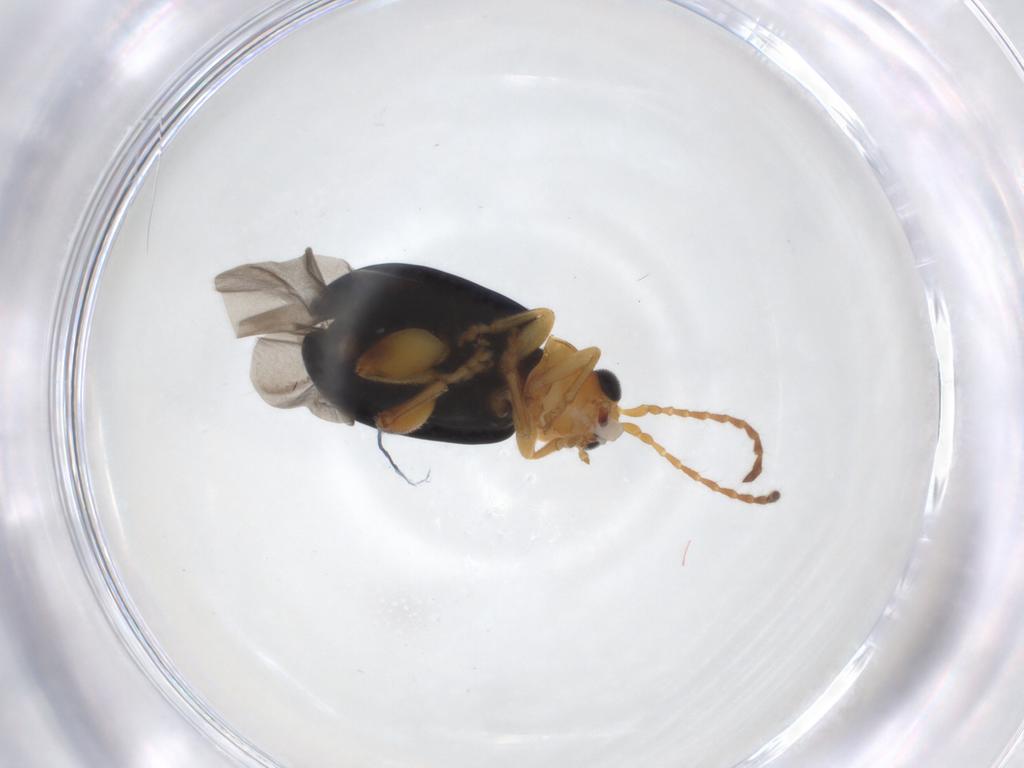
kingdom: Animalia
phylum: Arthropoda
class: Insecta
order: Coleoptera
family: Chrysomelidae
